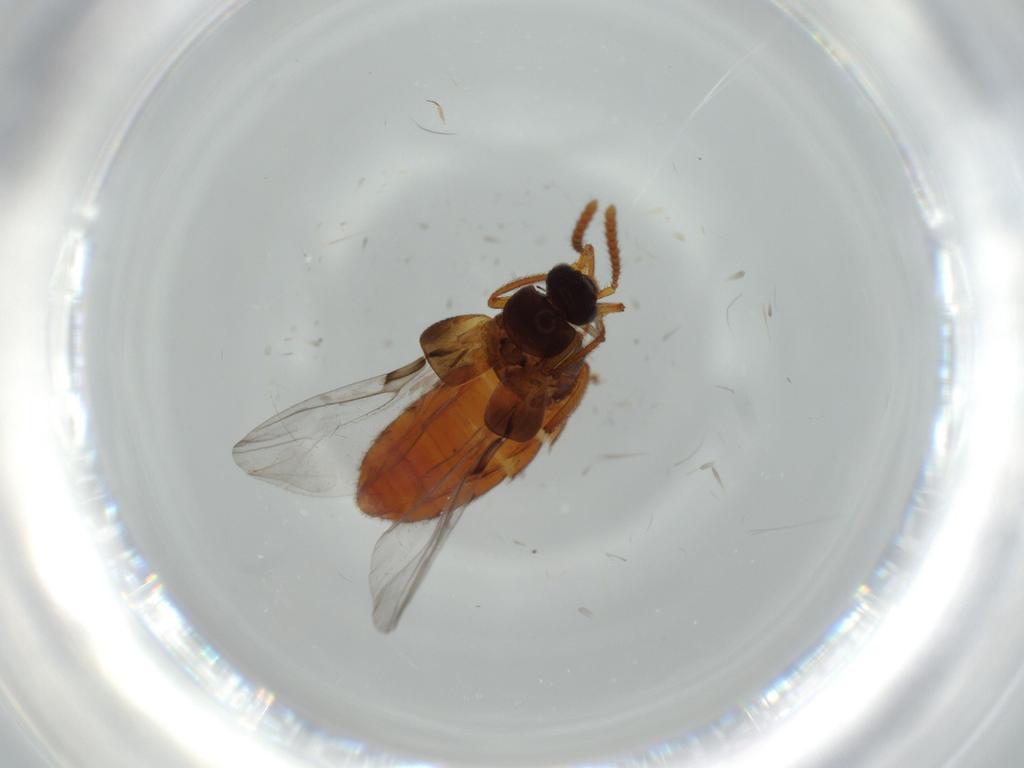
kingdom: Animalia
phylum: Arthropoda
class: Insecta
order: Coleoptera
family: Staphylinidae
